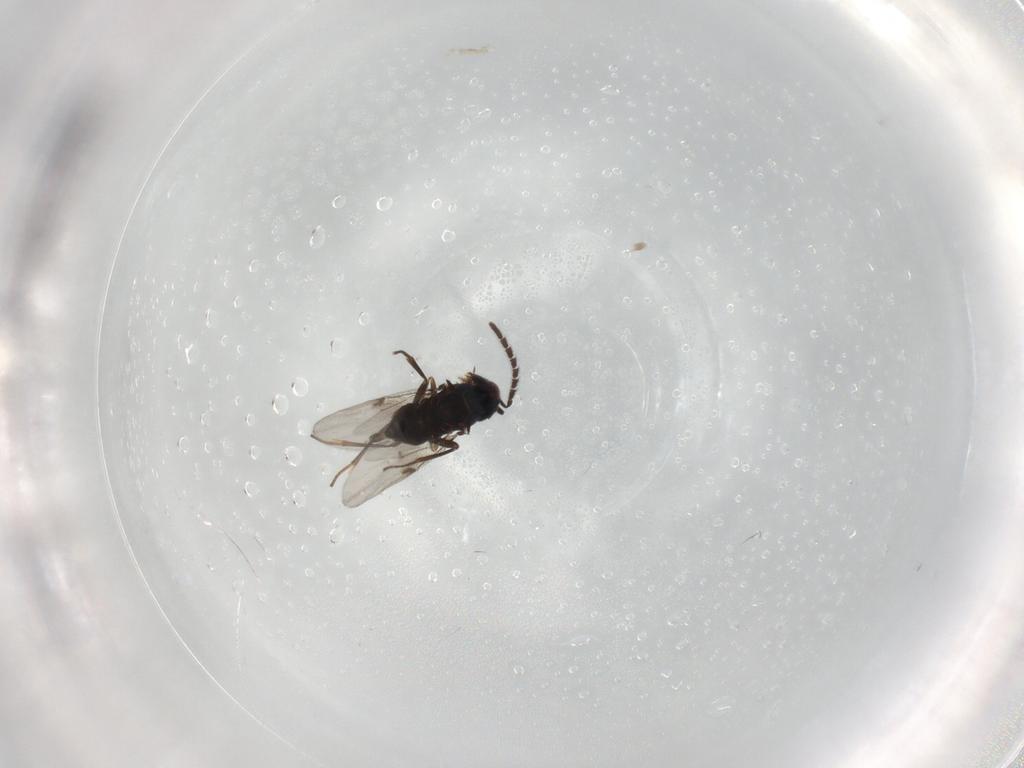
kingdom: Animalia
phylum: Arthropoda
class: Insecta
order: Hymenoptera
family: Encyrtidae
